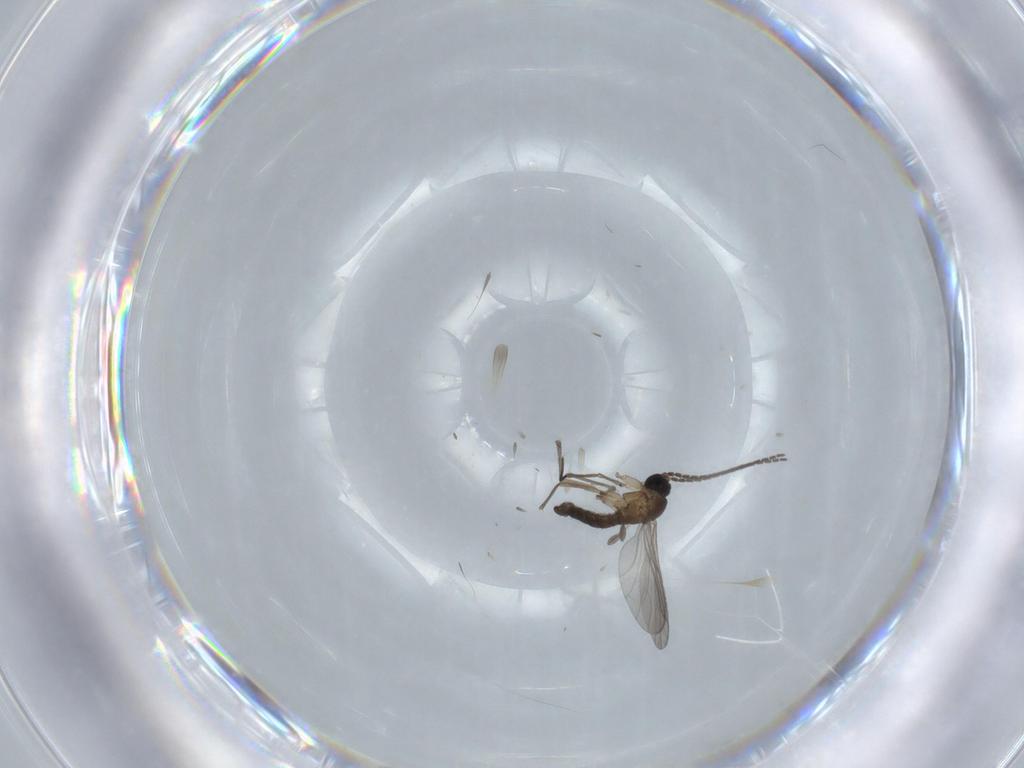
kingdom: Animalia
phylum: Arthropoda
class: Insecta
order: Diptera
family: Sciaridae
